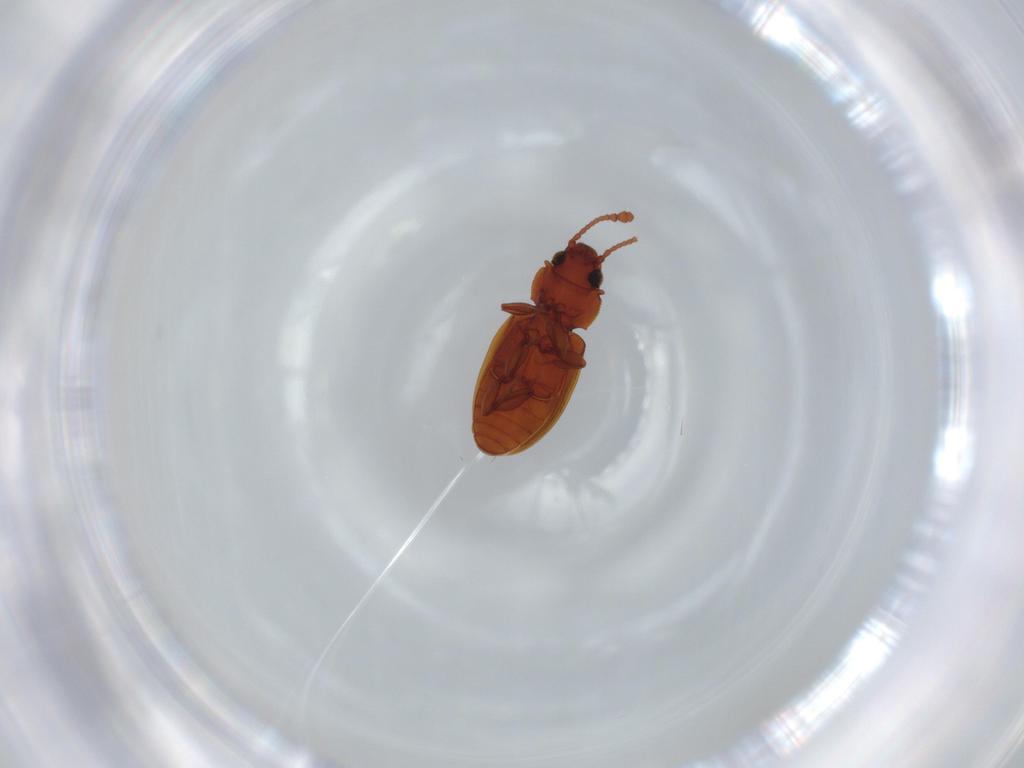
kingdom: Animalia
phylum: Arthropoda
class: Insecta
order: Coleoptera
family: Silvanidae
